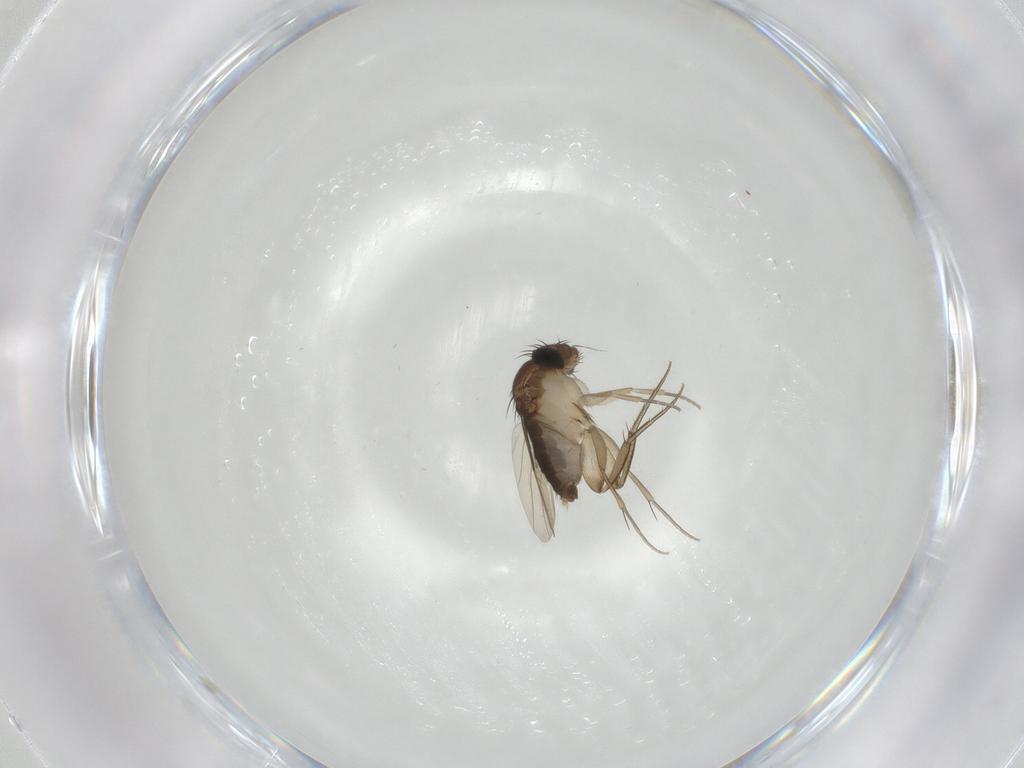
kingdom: Animalia
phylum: Arthropoda
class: Insecta
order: Diptera
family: Phoridae
